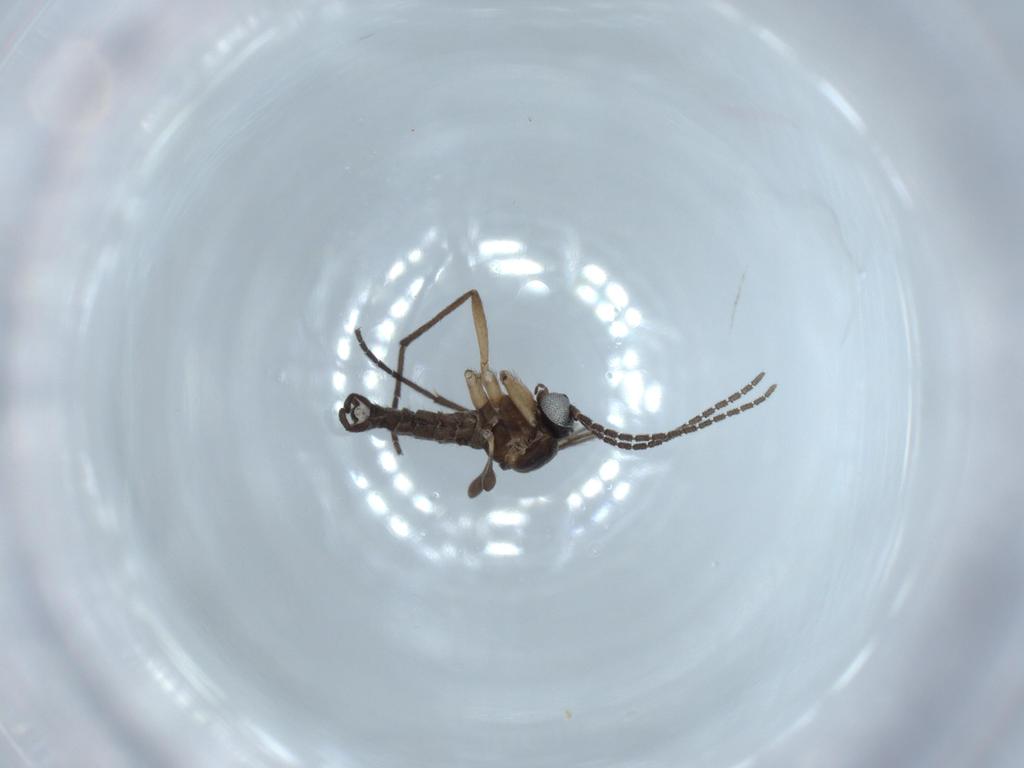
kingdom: Animalia
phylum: Arthropoda
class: Insecta
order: Diptera
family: Sciaridae
